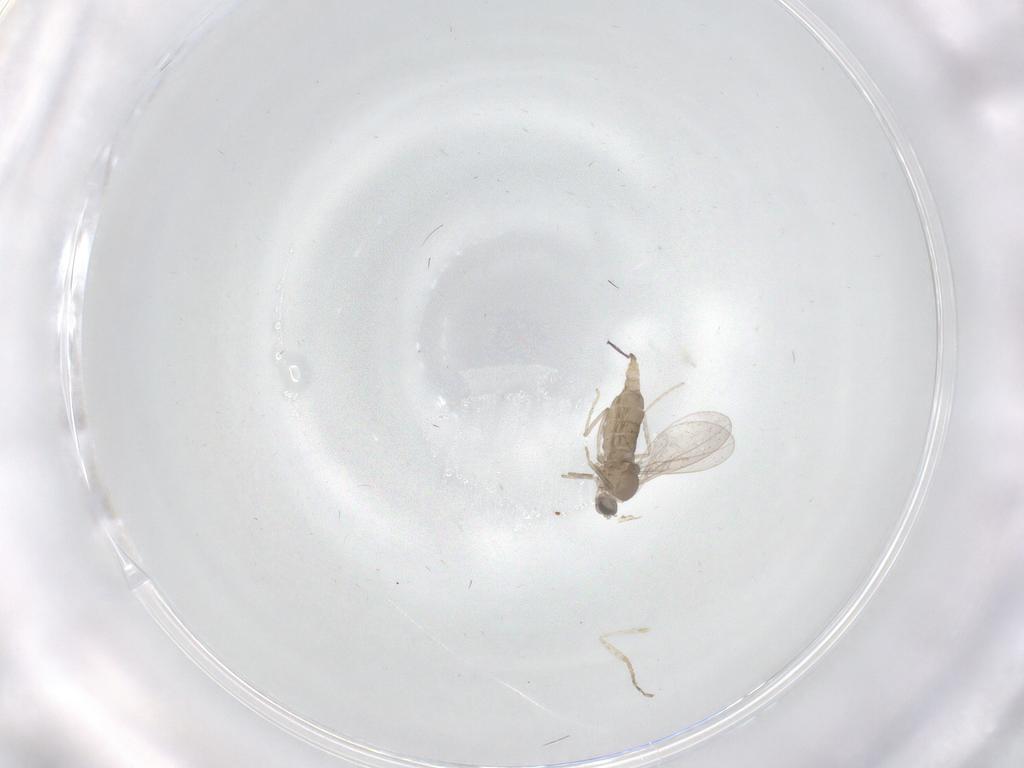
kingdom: Animalia
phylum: Arthropoda
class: Insecta
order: Diptera
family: Cecidomyiidae
